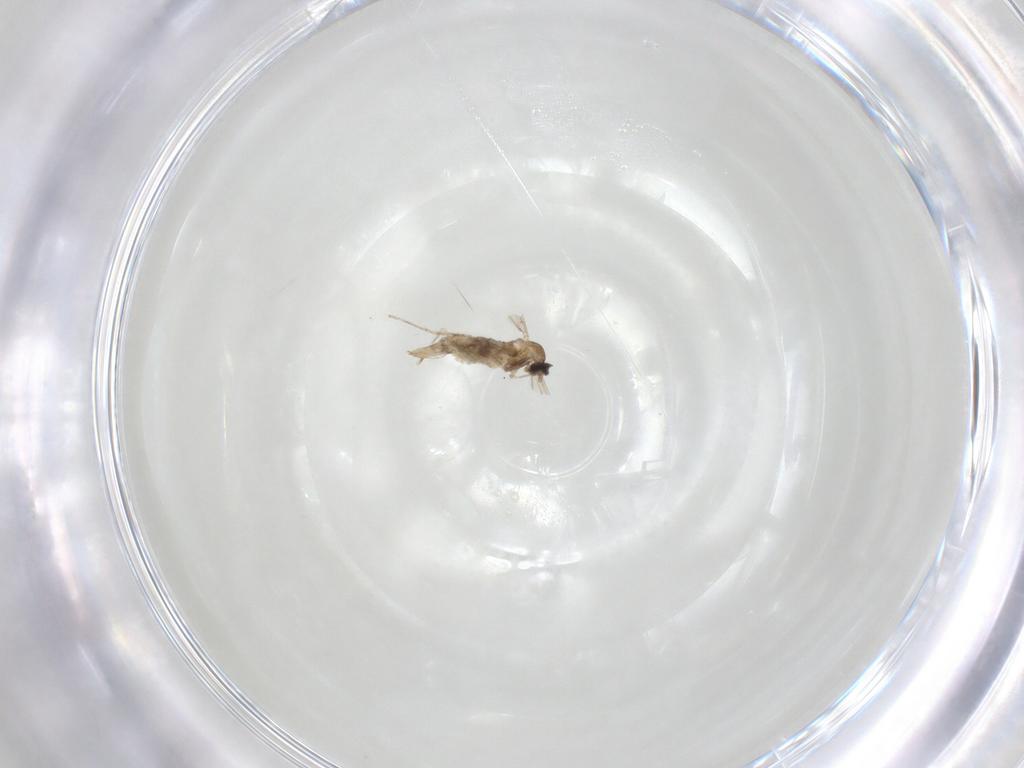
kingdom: Animalia
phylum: Arthropoda
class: Insecta
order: Diptera
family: Cecidomyiidae
